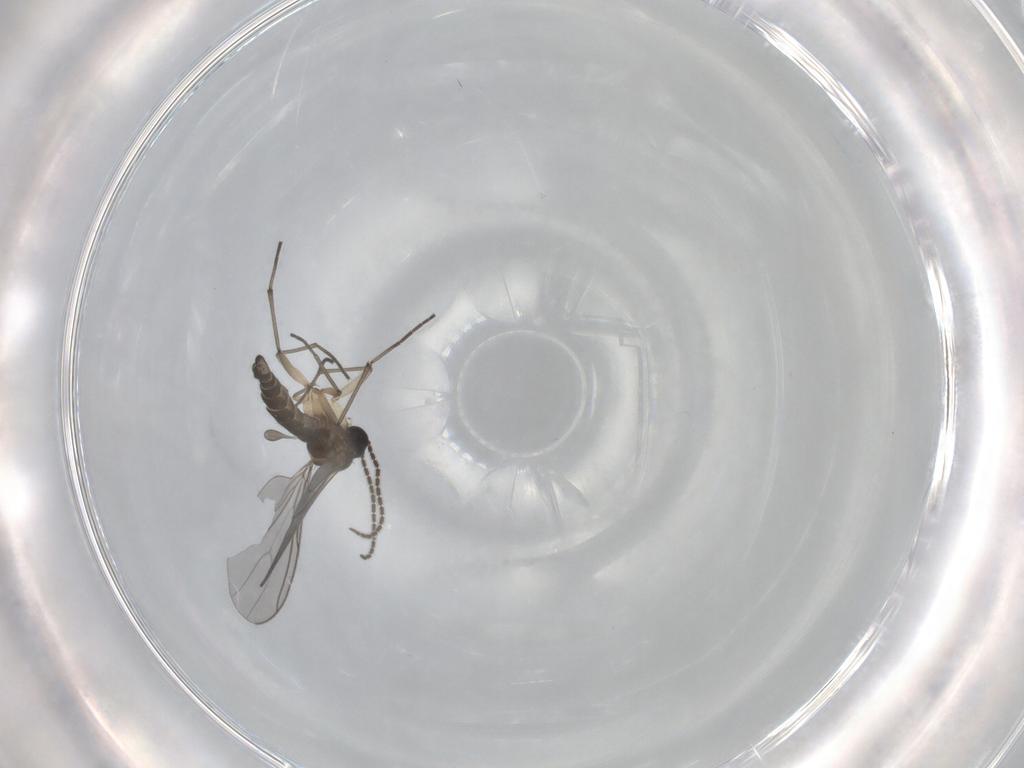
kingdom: Animalia
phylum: Arthropoda
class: Insecta
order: Diptera
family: Sciaridae
